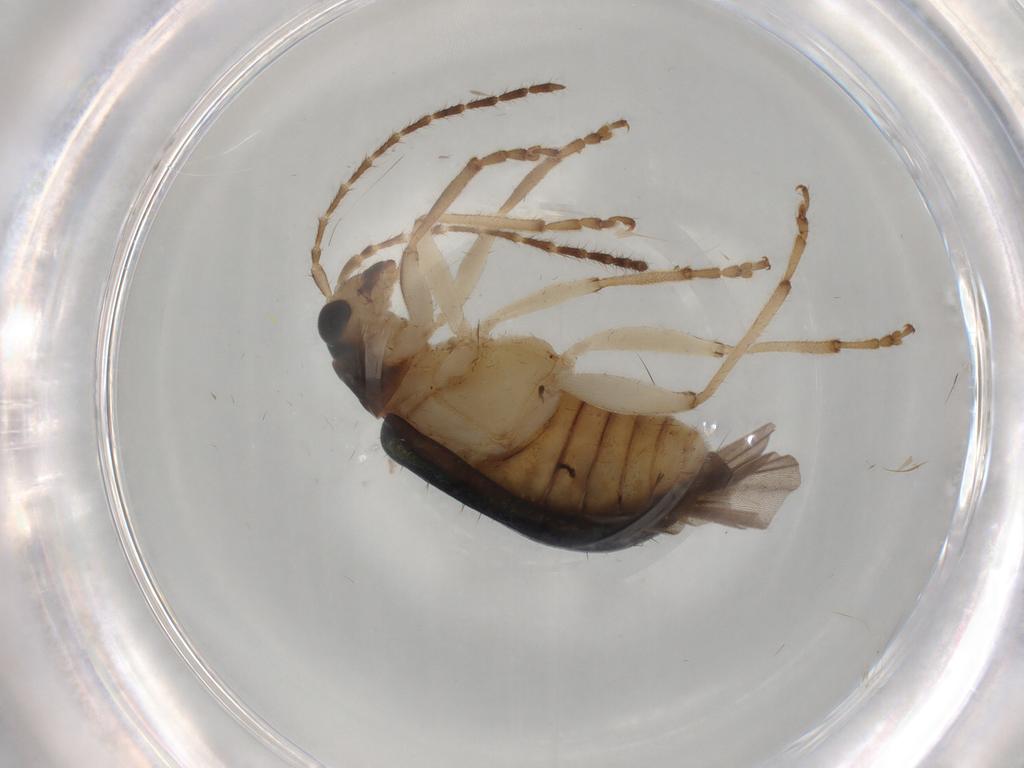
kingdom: Animalia
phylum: Arthropoda
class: Insecta
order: Coleoptera
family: Chrysomelidae
